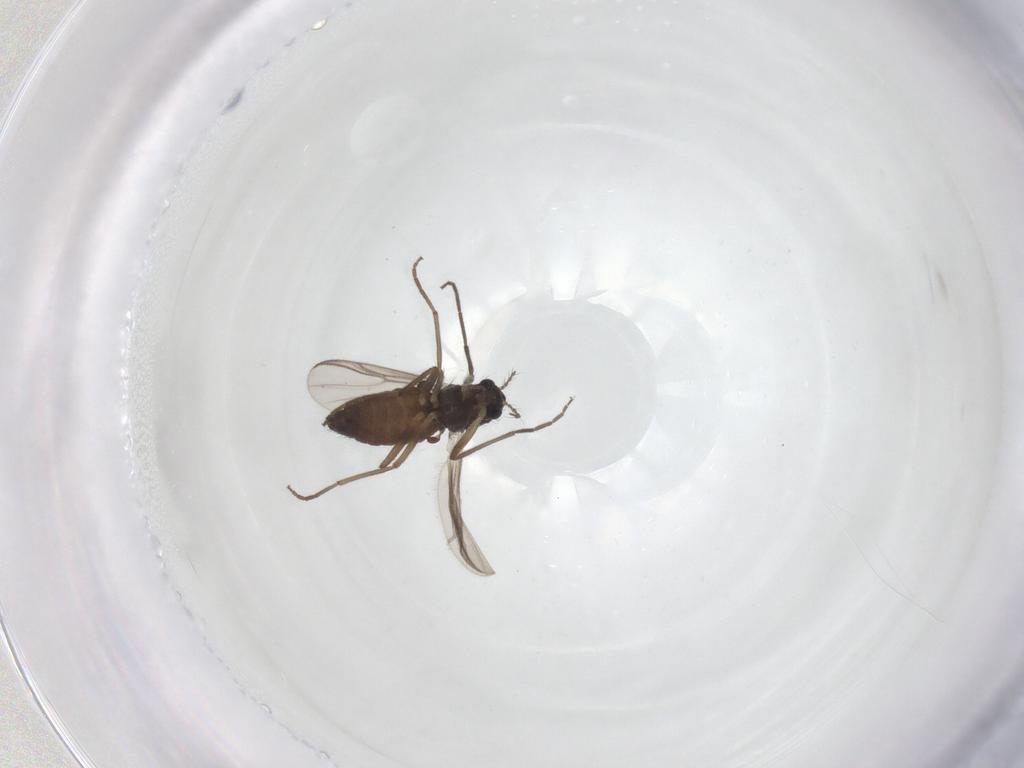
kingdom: Animalia
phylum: Arthropoda
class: Insecta
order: Diptera
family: Chironomidae
